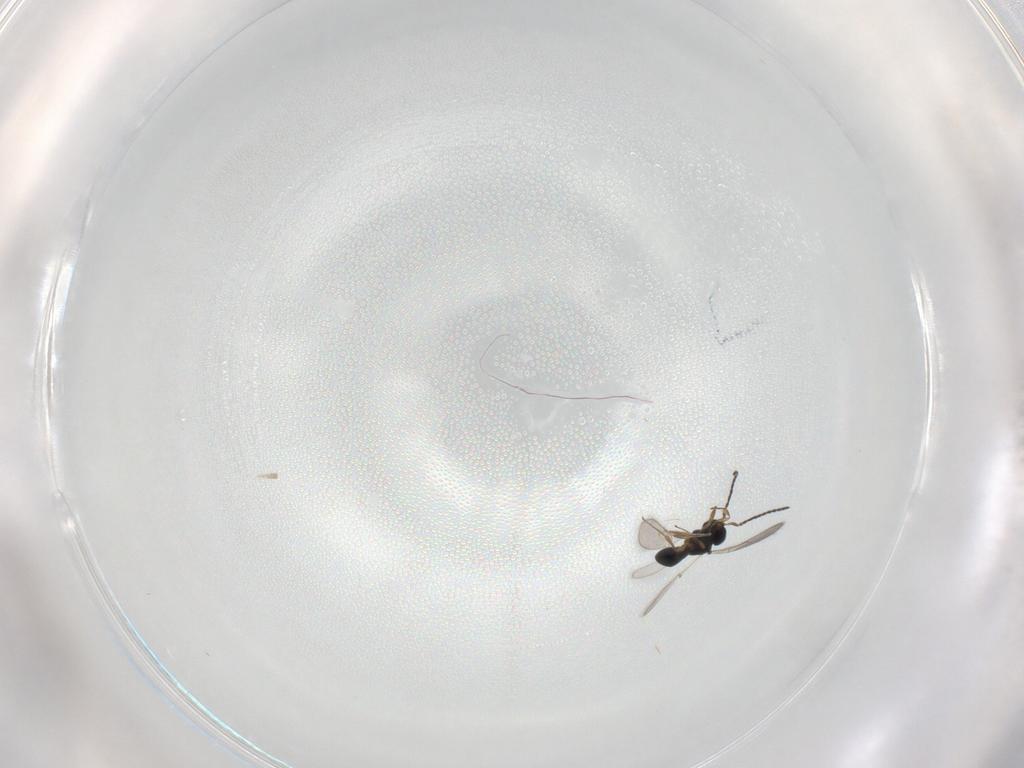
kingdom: Animalia
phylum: Arthropoda
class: Insecta
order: Hymenoptera
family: Scelionidae
